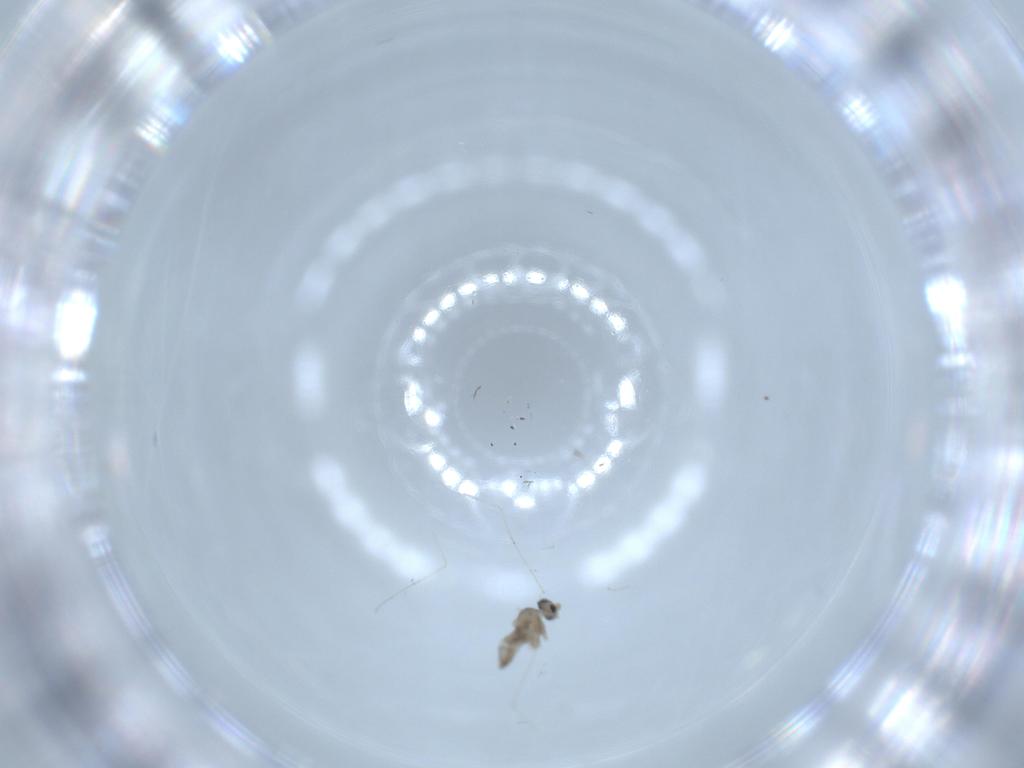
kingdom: Animalia
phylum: Arthropoda
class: Insecta
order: Diptera
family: Cecidomyiidae
